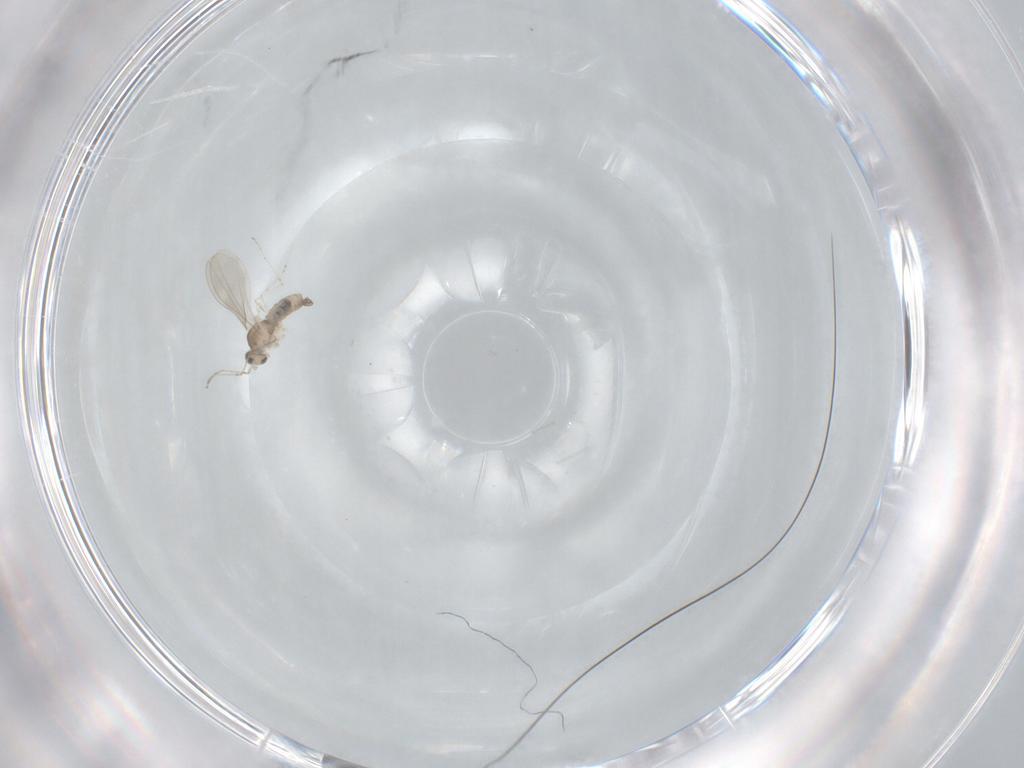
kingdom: Animalia
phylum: Arthropoda
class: Insecta
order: Diptera
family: Cecidomyiidae
